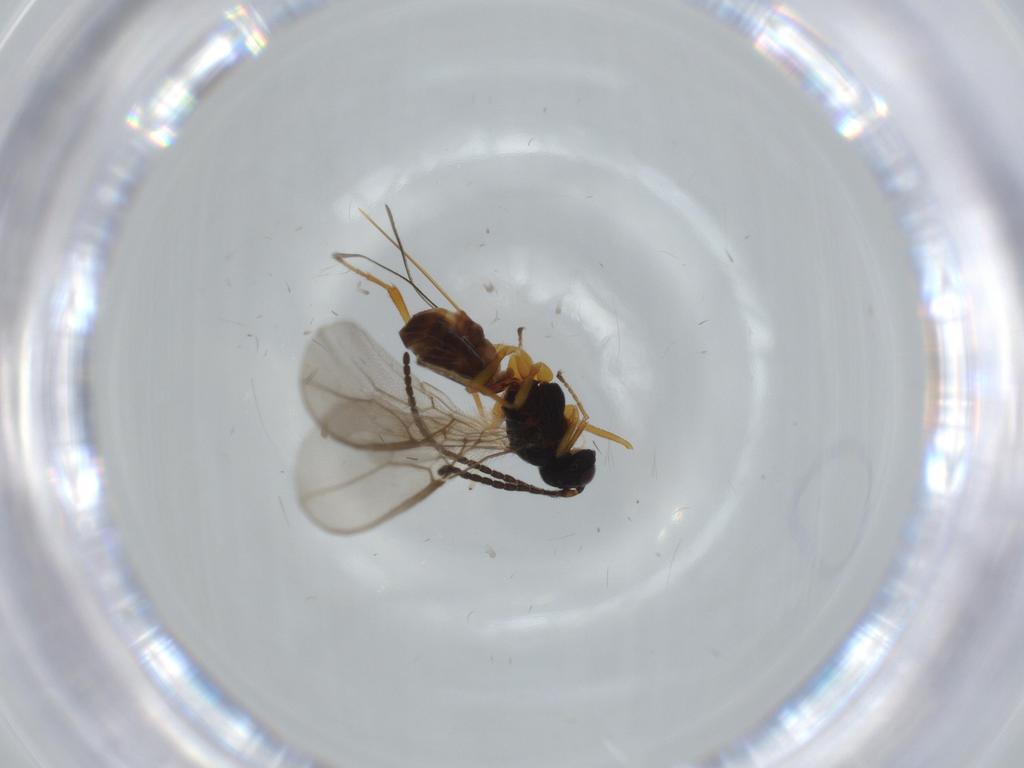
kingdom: Animalia
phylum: Arthropoda
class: Insecta
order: Hymenoptera
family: Braconidae
